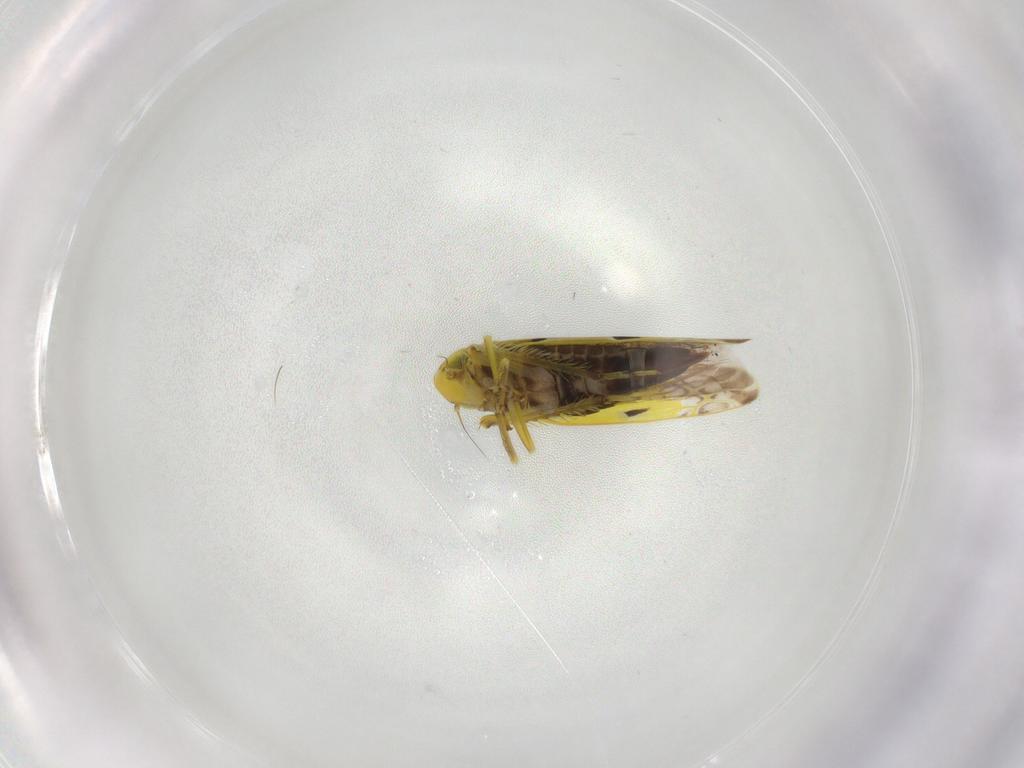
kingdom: Animalia
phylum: Arthropoda
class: Insecta
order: Hemiptera
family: Cicadellidae
